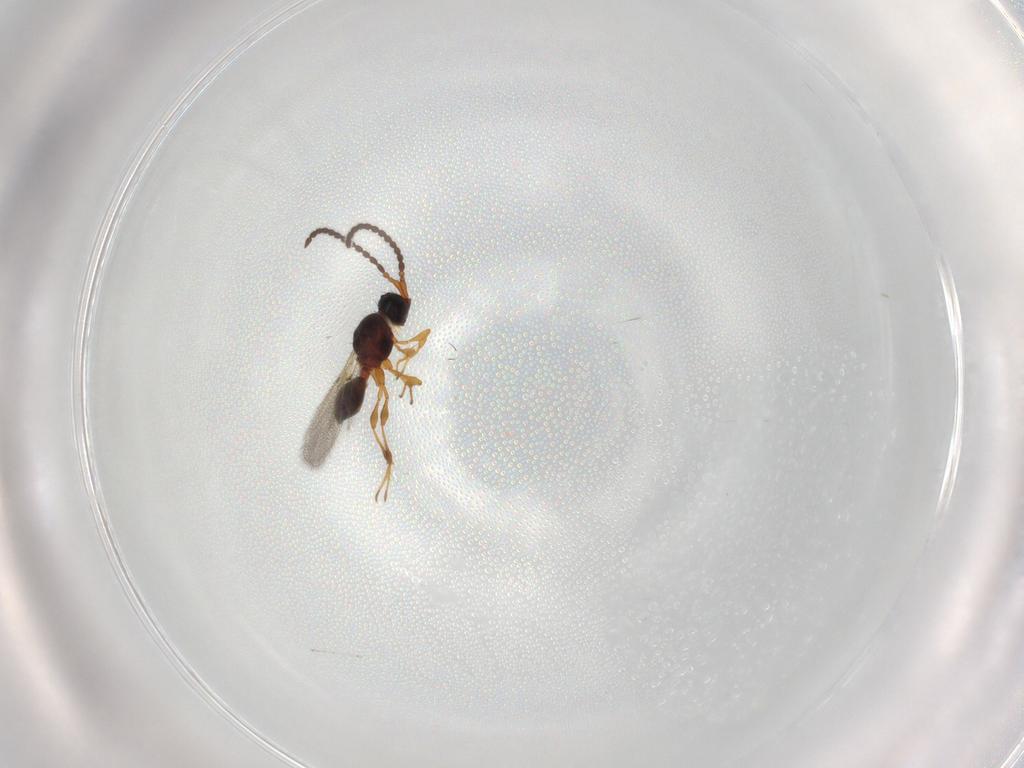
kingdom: Animalia
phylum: Arthropoda
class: Insecta
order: Hymenoptera
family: Diapriidae
